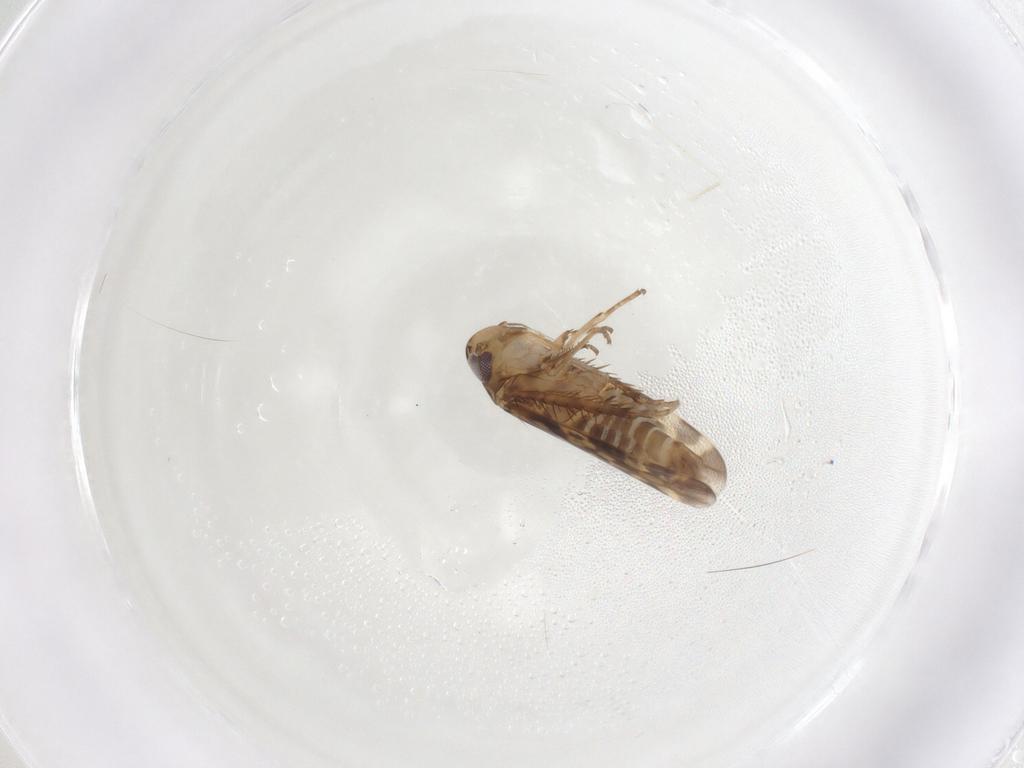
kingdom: Animalia
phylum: Arthropoda
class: Insecta
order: Hemiptera
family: Cicadellidae
